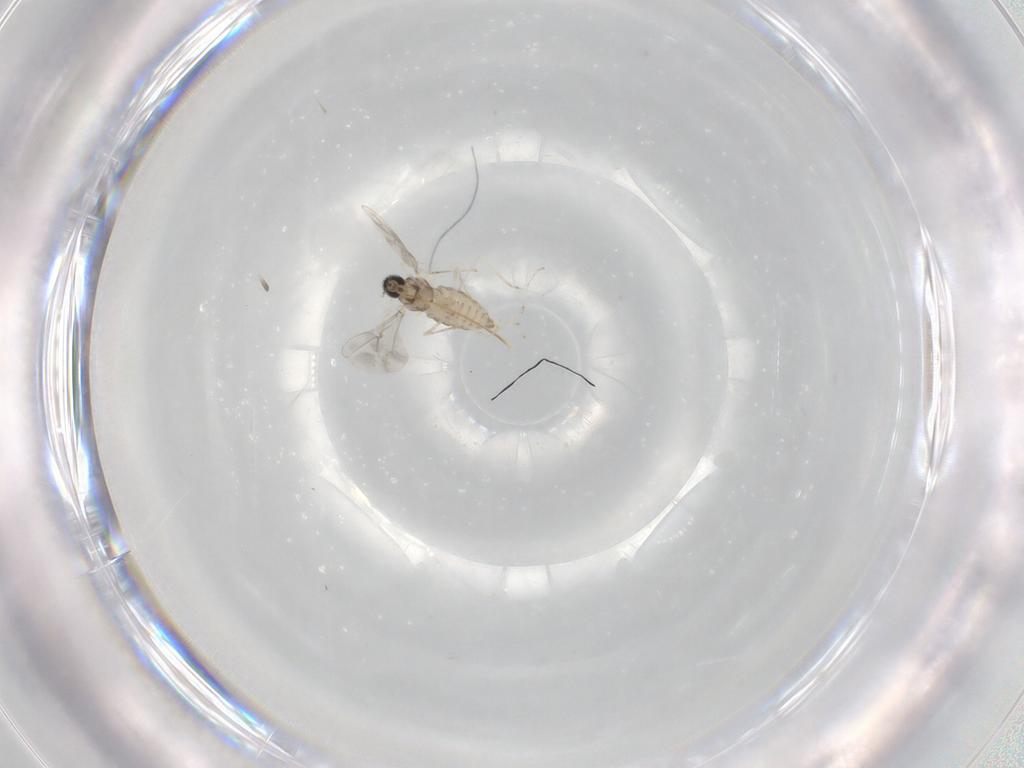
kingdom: Animalia
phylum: Arthropoda
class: Insecta
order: Diptera
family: Cecidomyiidae
